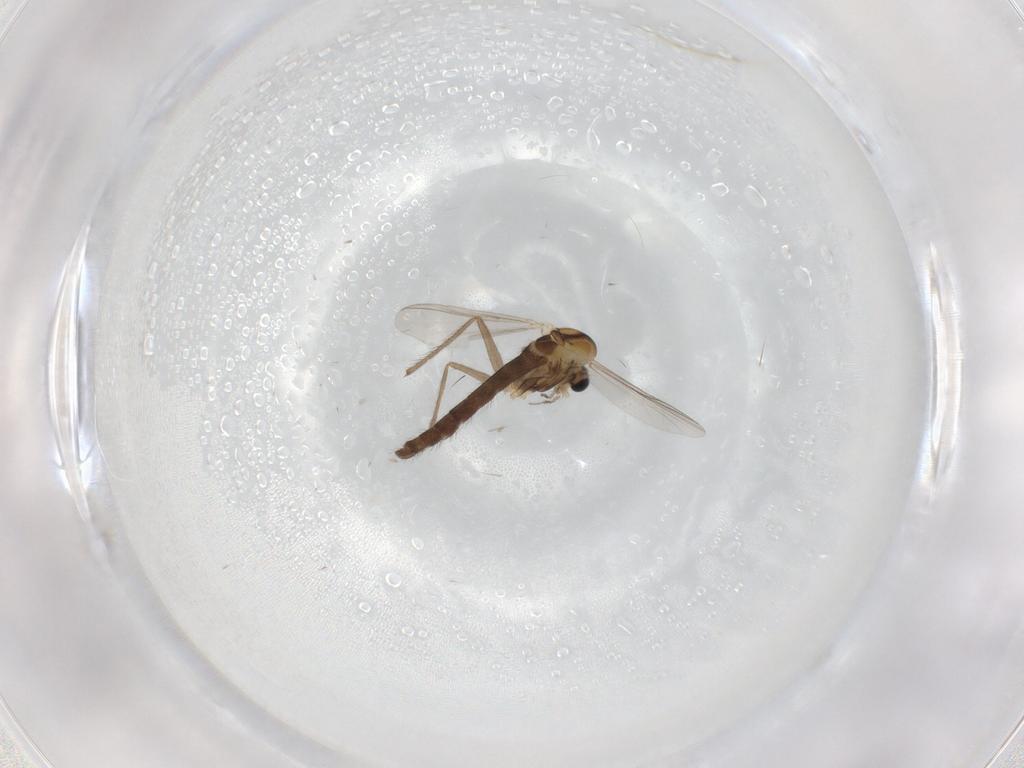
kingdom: Animalia
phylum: Arthropoda
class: Insecta
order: Diptera
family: Chironomidae
